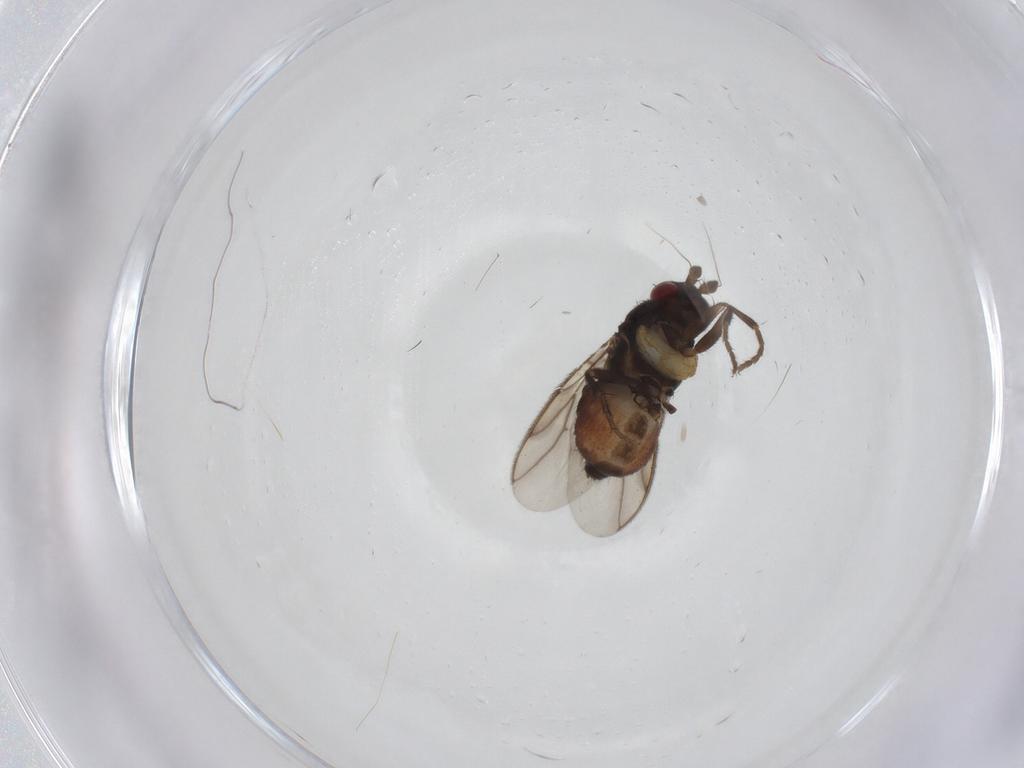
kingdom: Animalia
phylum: Arthropoda
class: Insecta
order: Diptera
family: Sphaeroceridae
